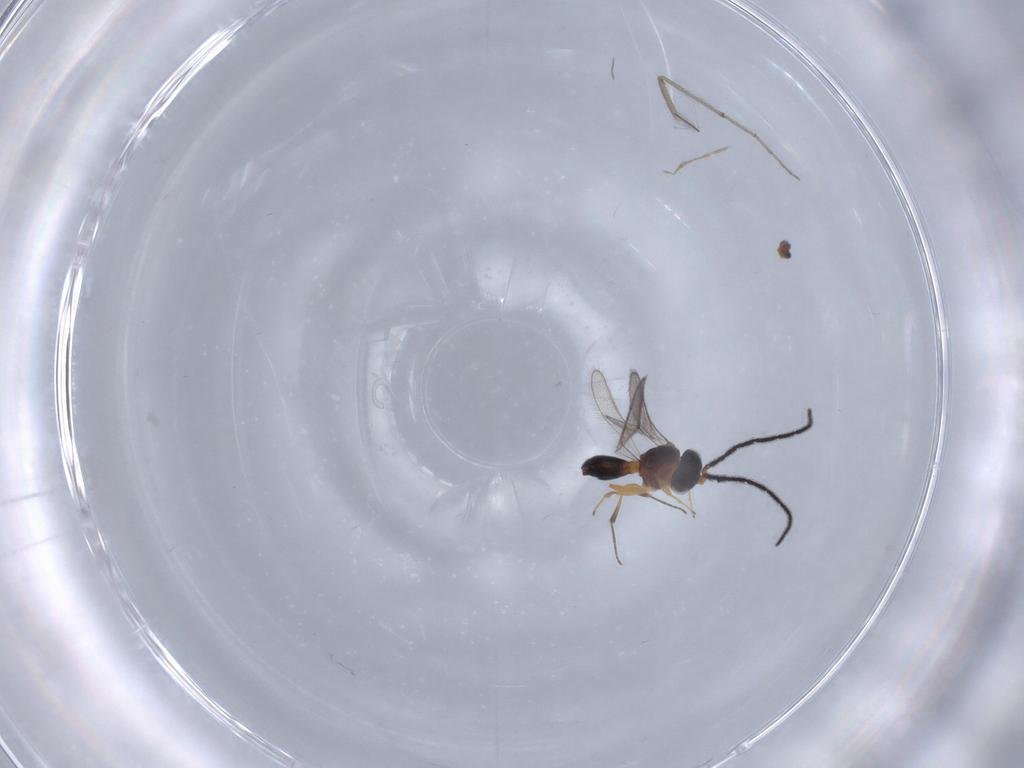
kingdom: Animalia
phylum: Arthropoda
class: Insecta
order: Hymenoptera
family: Scelionidae
